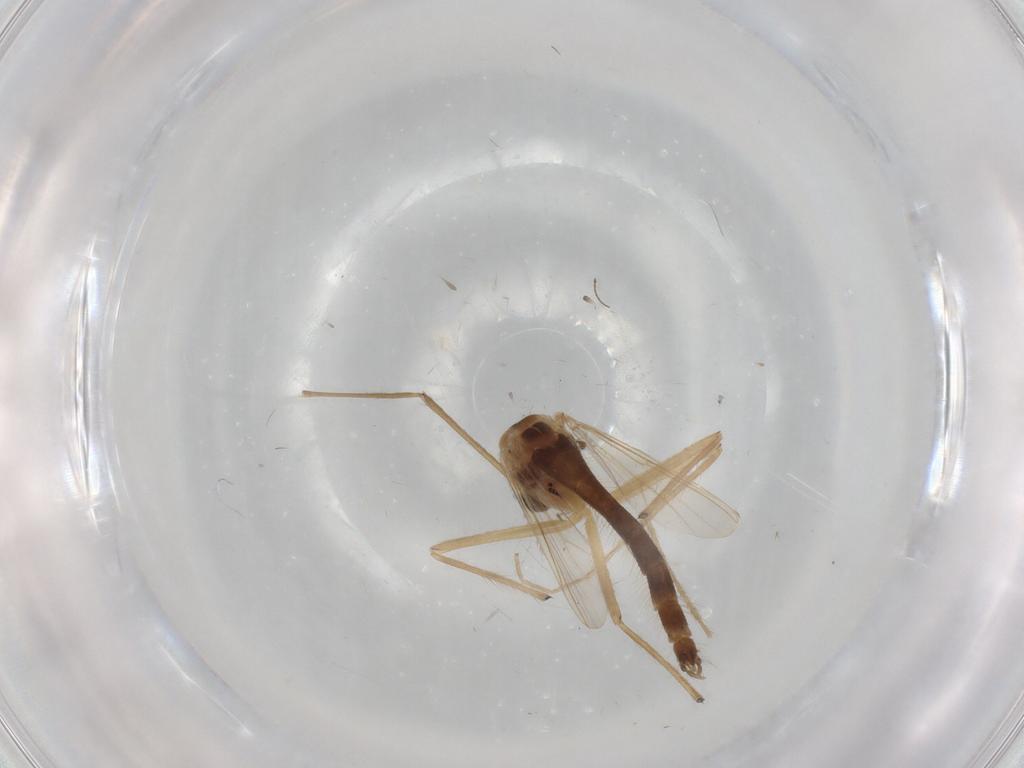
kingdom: Animalia
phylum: Arthropoda
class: Insecta
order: Diptera
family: Chironomidae
